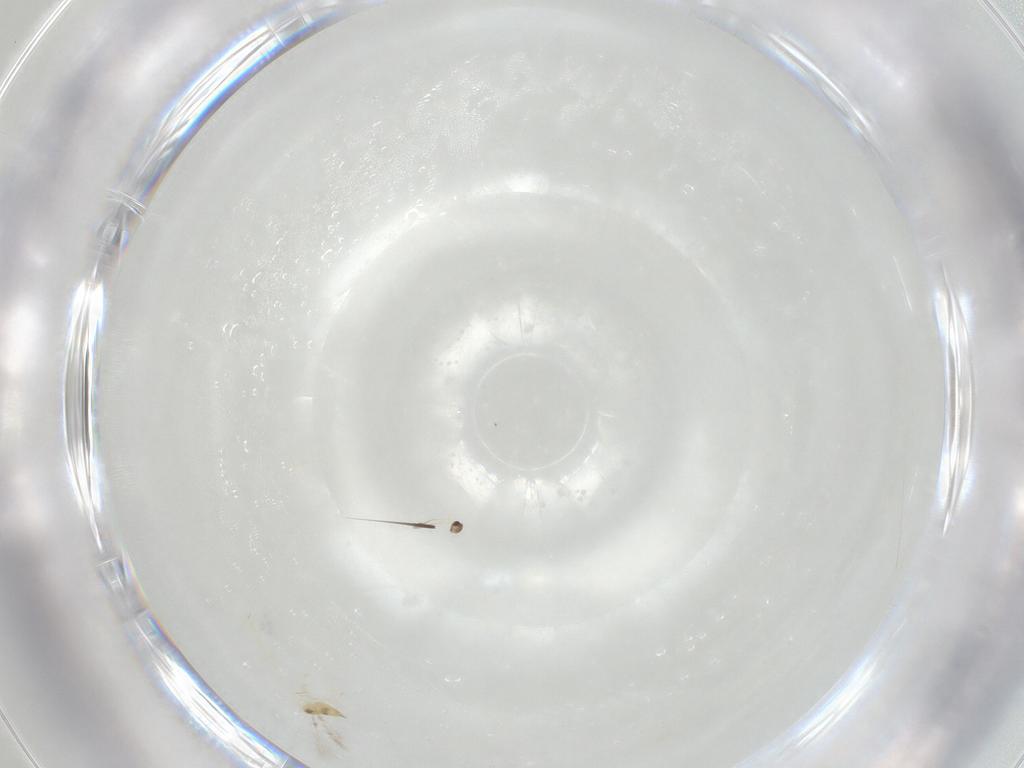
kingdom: Animalia
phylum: Arthropoda
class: Insecta
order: Hymenoptera
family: Mymaridae
